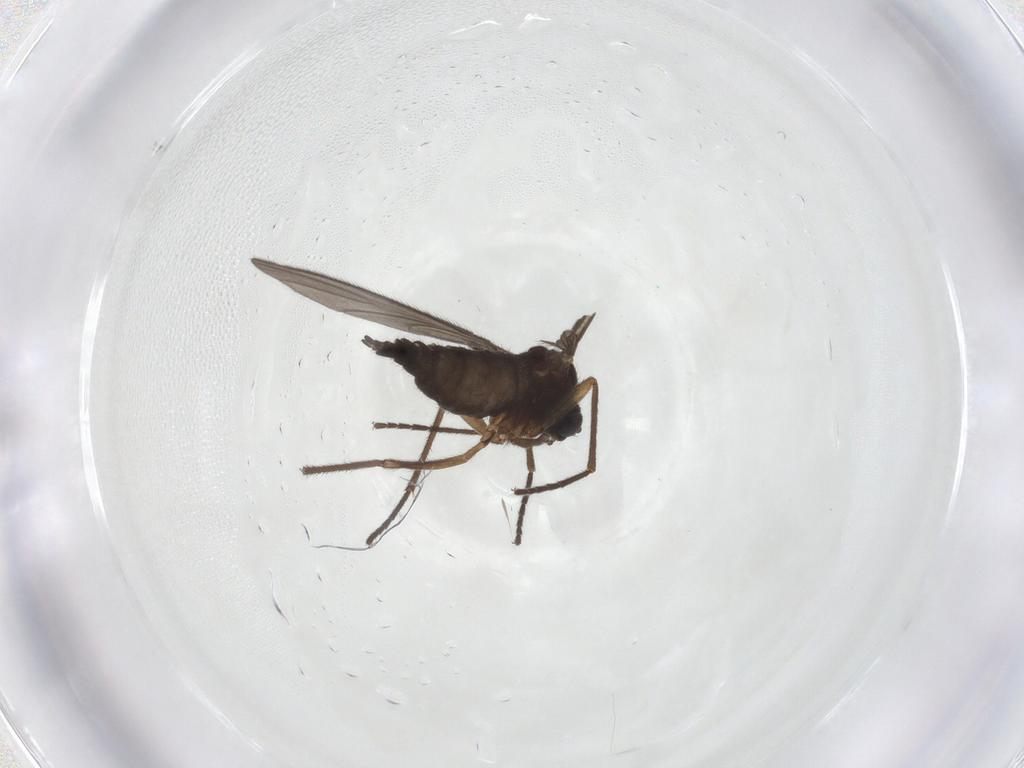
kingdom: Animalia
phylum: Arthropoda
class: Insecta
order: Diptera
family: Sciaridae
